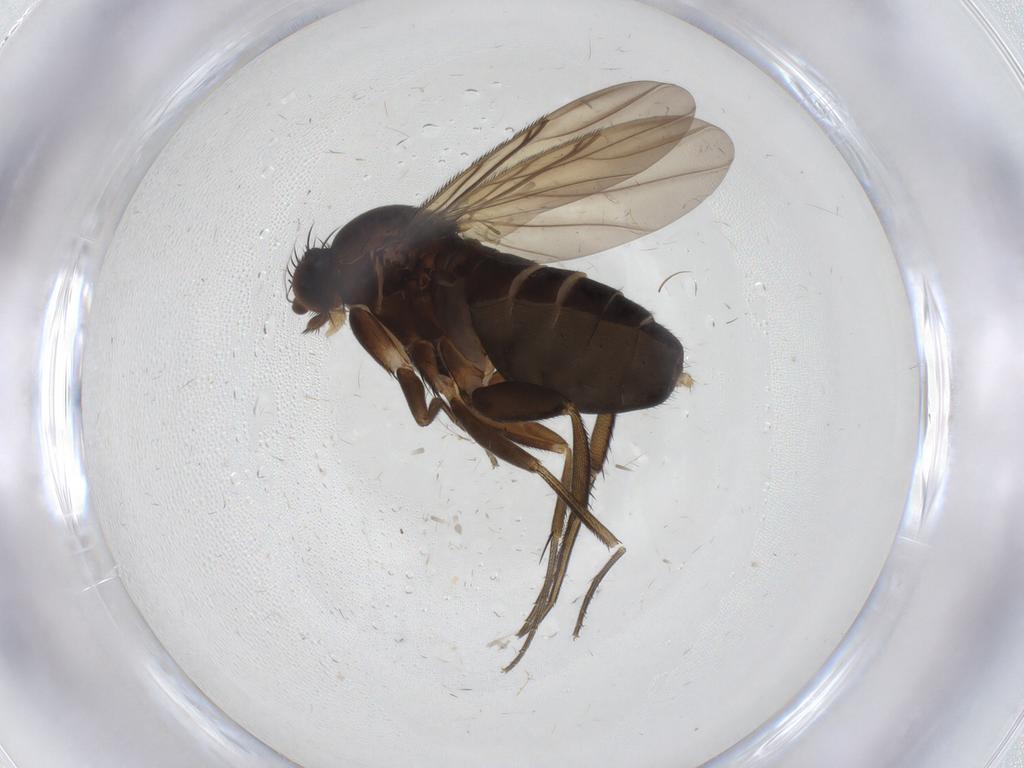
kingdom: Animalia
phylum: Arthropoda
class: Insecta
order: Diptera
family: Phoridae
